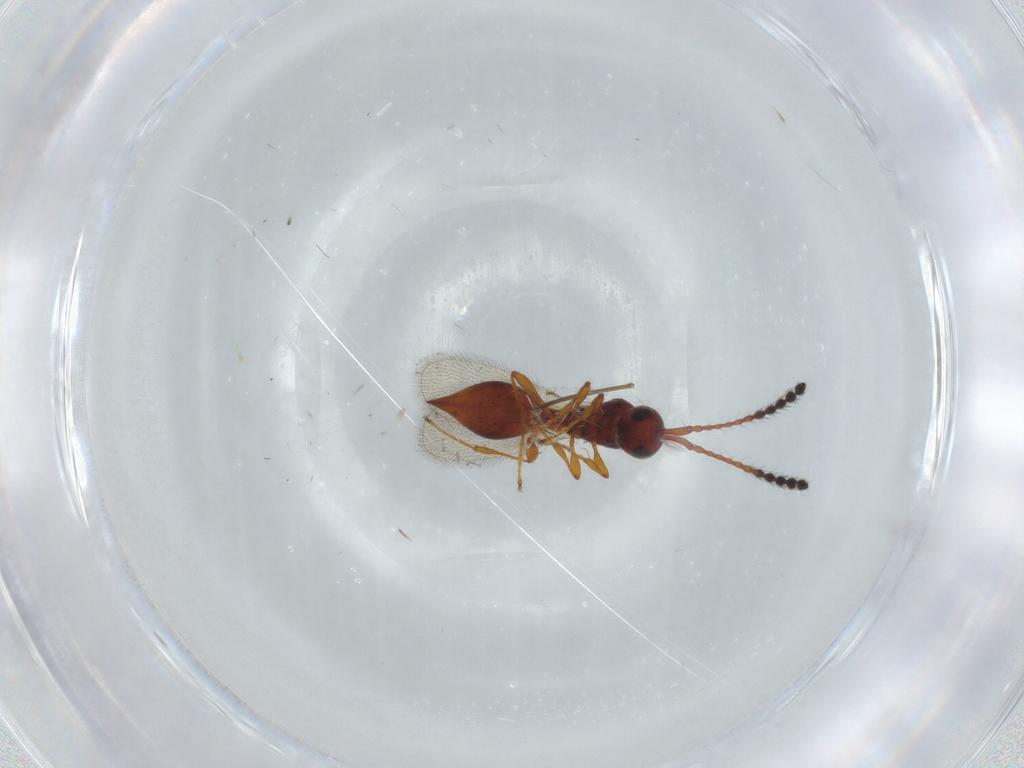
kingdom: Animalia
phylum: Arthropoda
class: Insecta
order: Hymenoptera
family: Diapriidae
